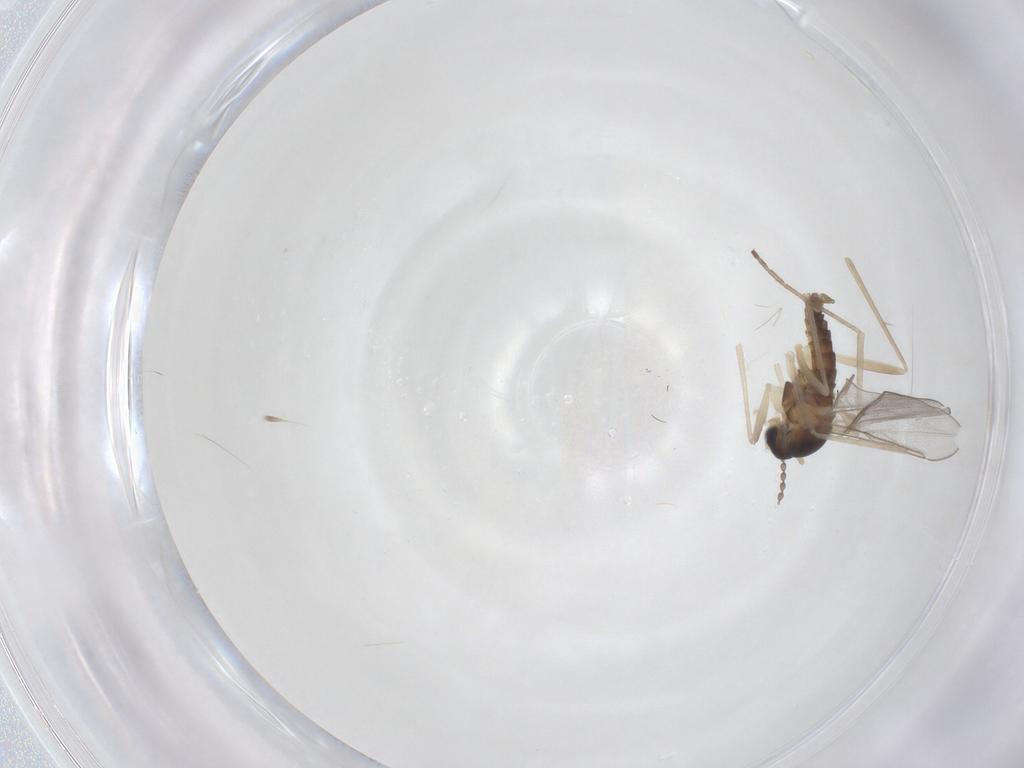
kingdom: Animalia
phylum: Arthropoda
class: Insecta
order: Diptera
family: Cecidomyiidae
